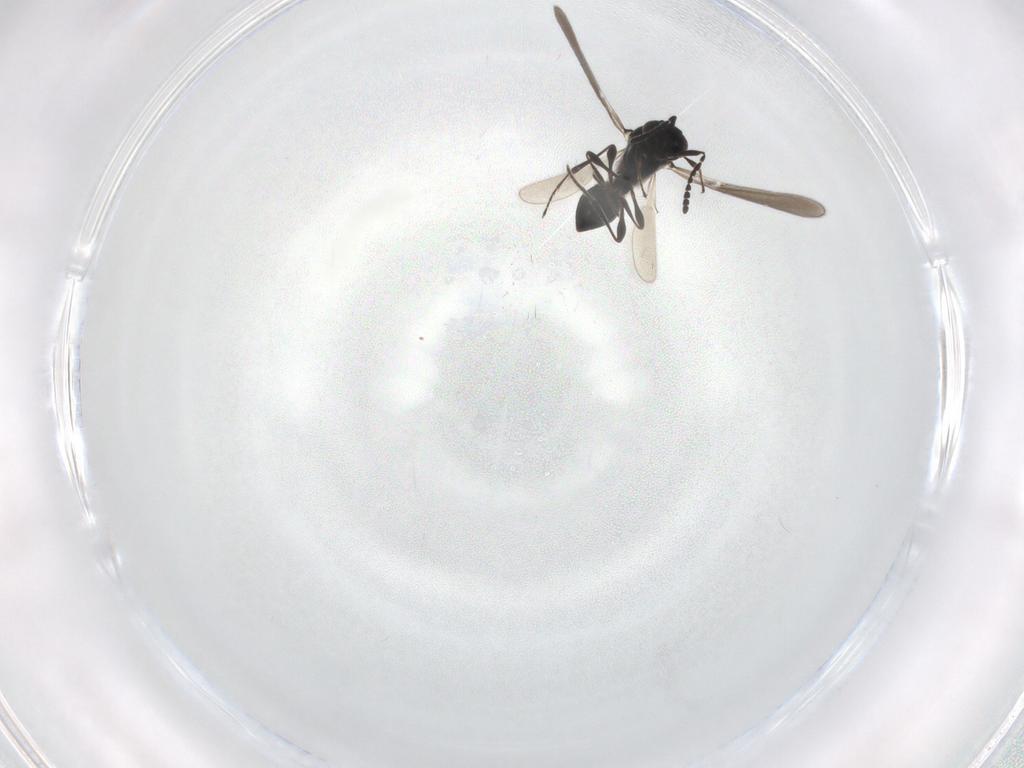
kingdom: Animalia
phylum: Arthropoda
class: Insecta
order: Hymenoptera
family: Platygastridae
